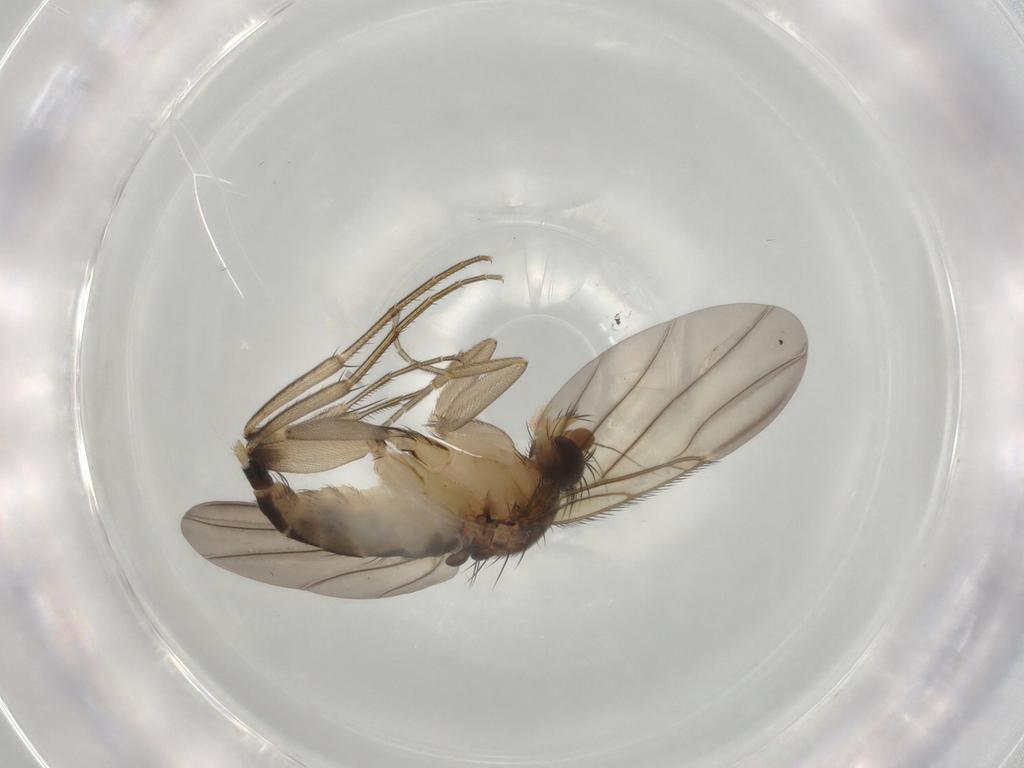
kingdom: Animalia
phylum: Arthropoda
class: Insecta
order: Diptera
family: Phoridae
